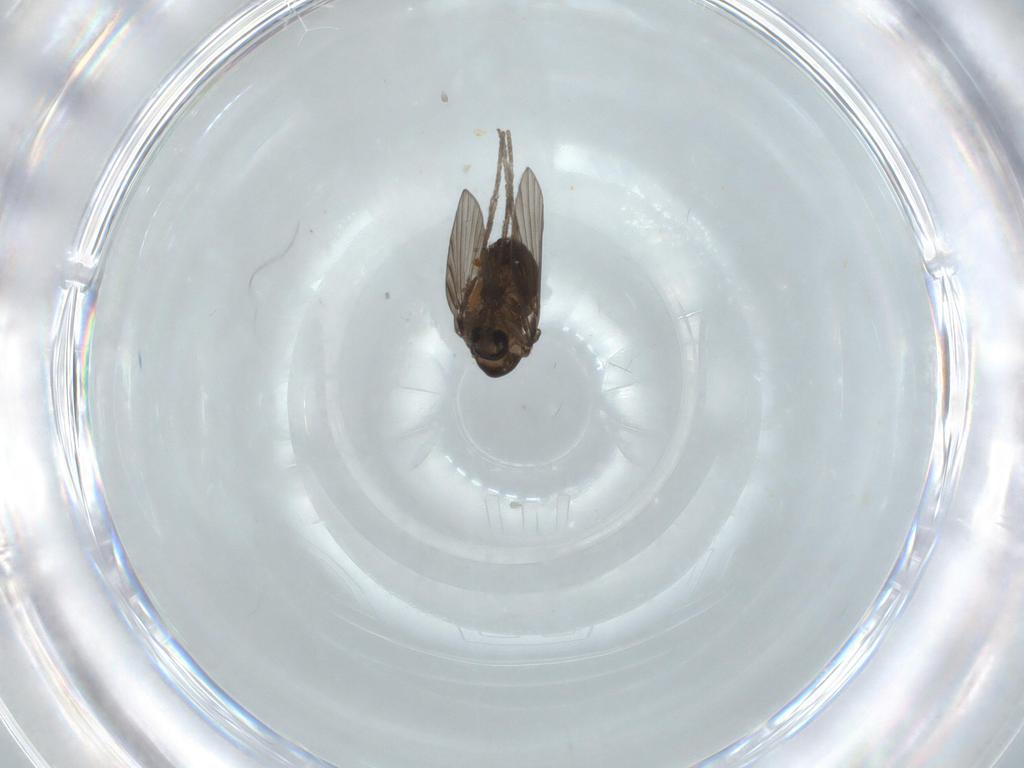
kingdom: Animalia
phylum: Arthropoda
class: Insecta
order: Diptera
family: Psychodidae
